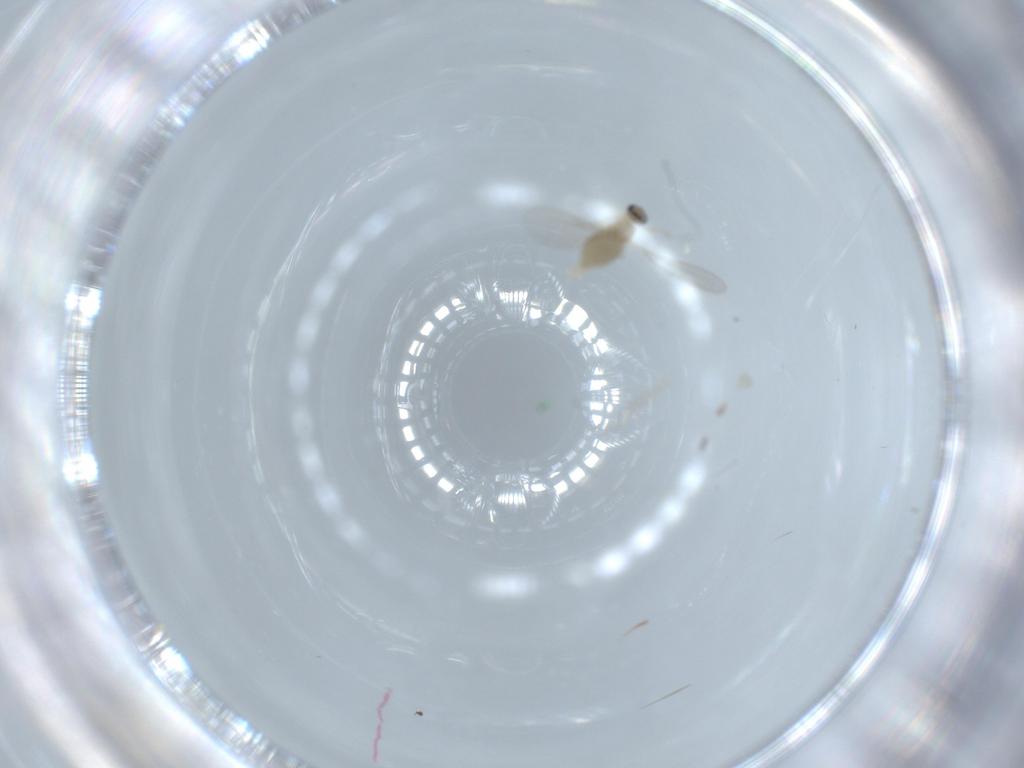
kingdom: Animalia
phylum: Arthropoda
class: Insecta
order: Diptera
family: Cecidomyiidae
